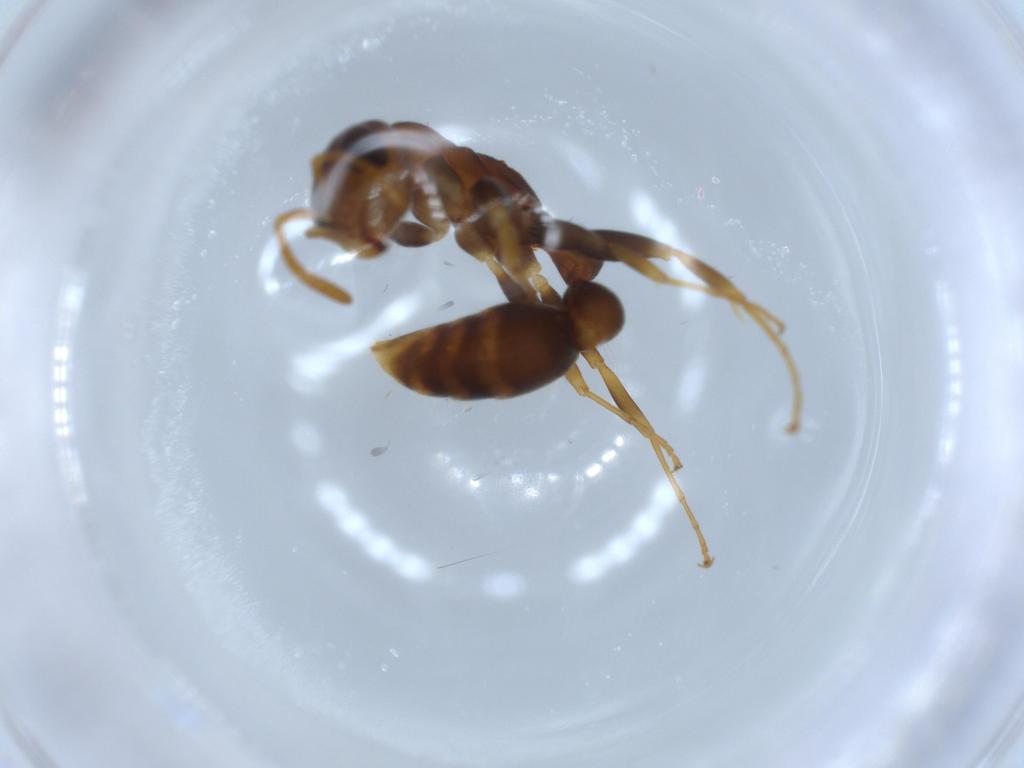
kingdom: Animalia
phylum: Arthropoda
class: Insecta
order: Hymenoptera
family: Formicidae
